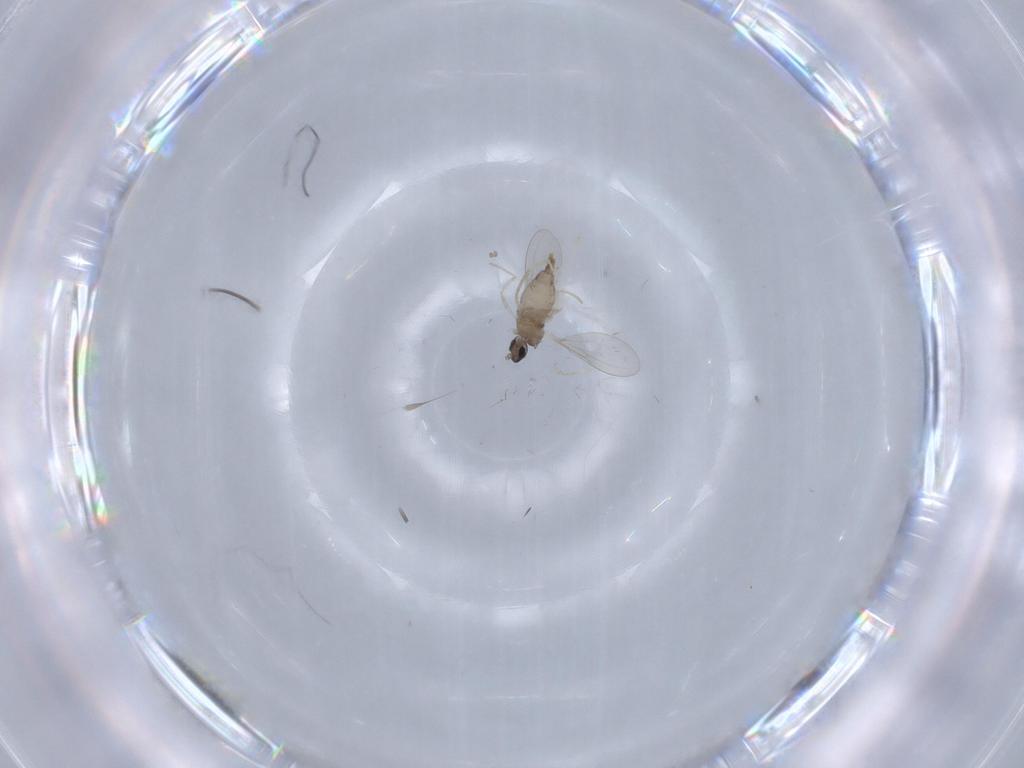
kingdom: Animalia
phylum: Arthropoda
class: Insecta
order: Diptera
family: Cecidomyiidae
